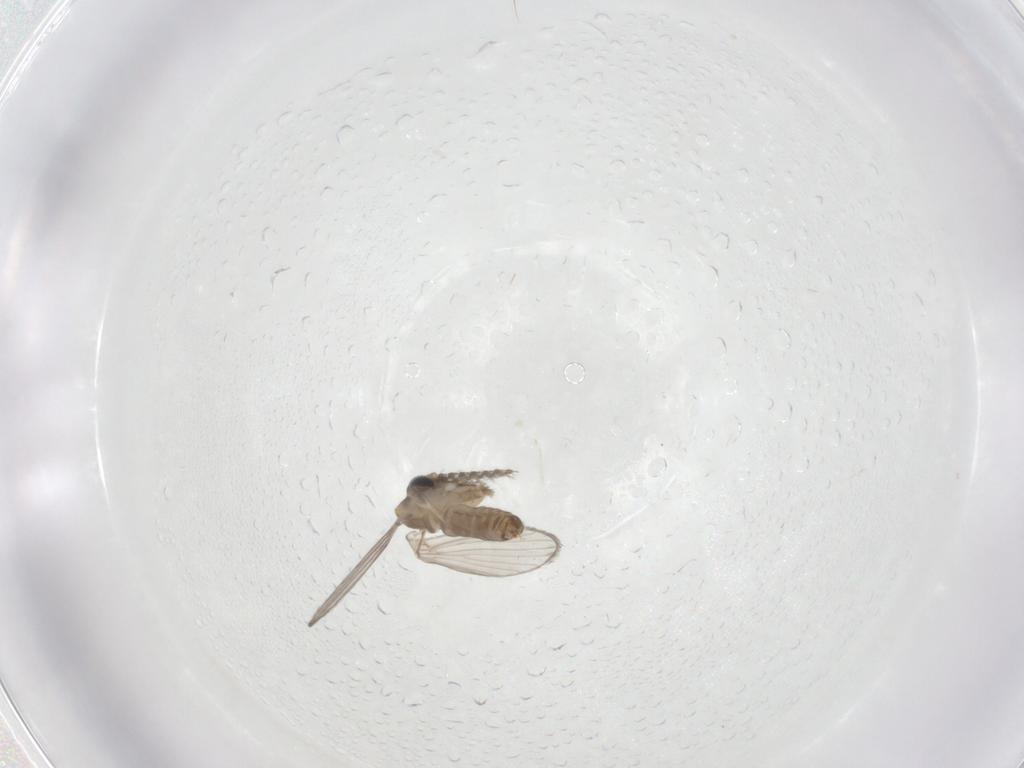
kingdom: Animalia
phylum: Arthropoda
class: Insecta
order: Diptera
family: Psychodidae
